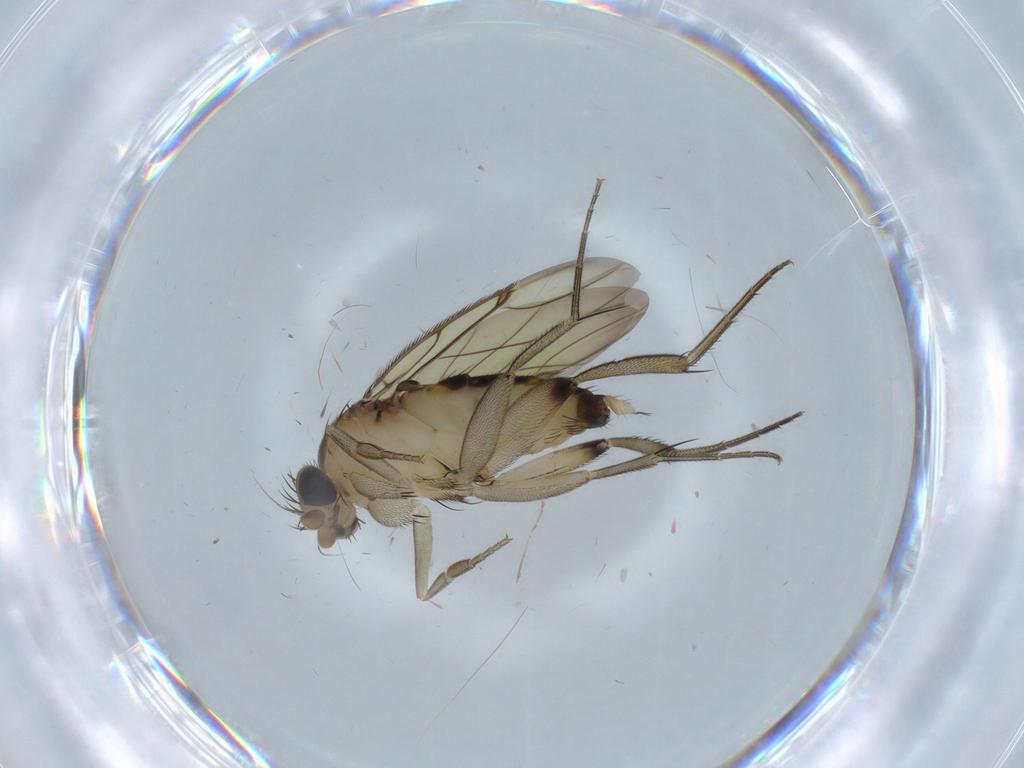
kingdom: Animalia
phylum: Arthropoda
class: Insecta
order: Diptera
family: Phoridae
